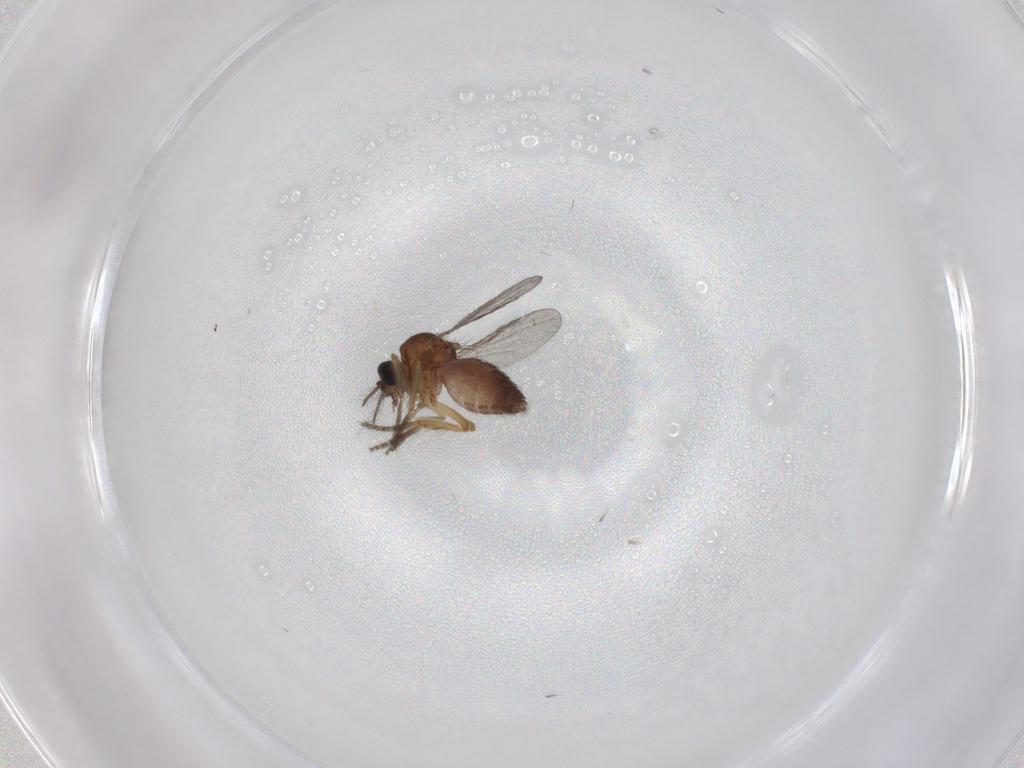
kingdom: Animalia
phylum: Arthropoda
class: Insecta
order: Diptera
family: Ceratopogonidae
